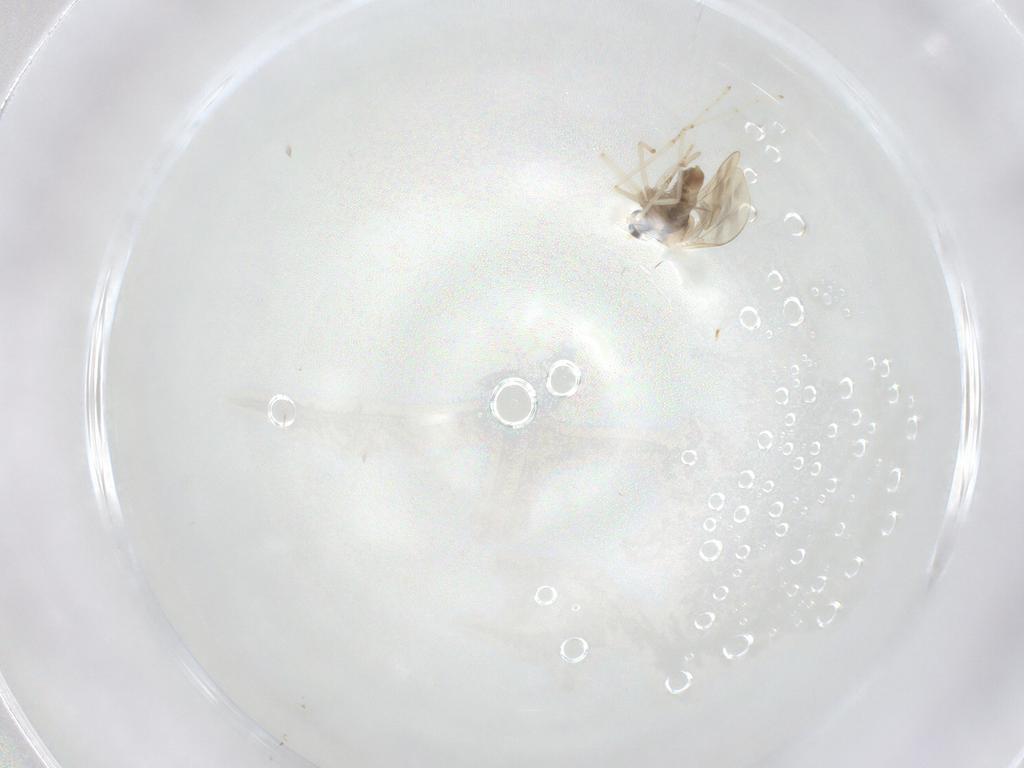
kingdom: Animalia
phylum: Arthropoda
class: Insecta
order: Diptera
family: Cecidomyiidae
